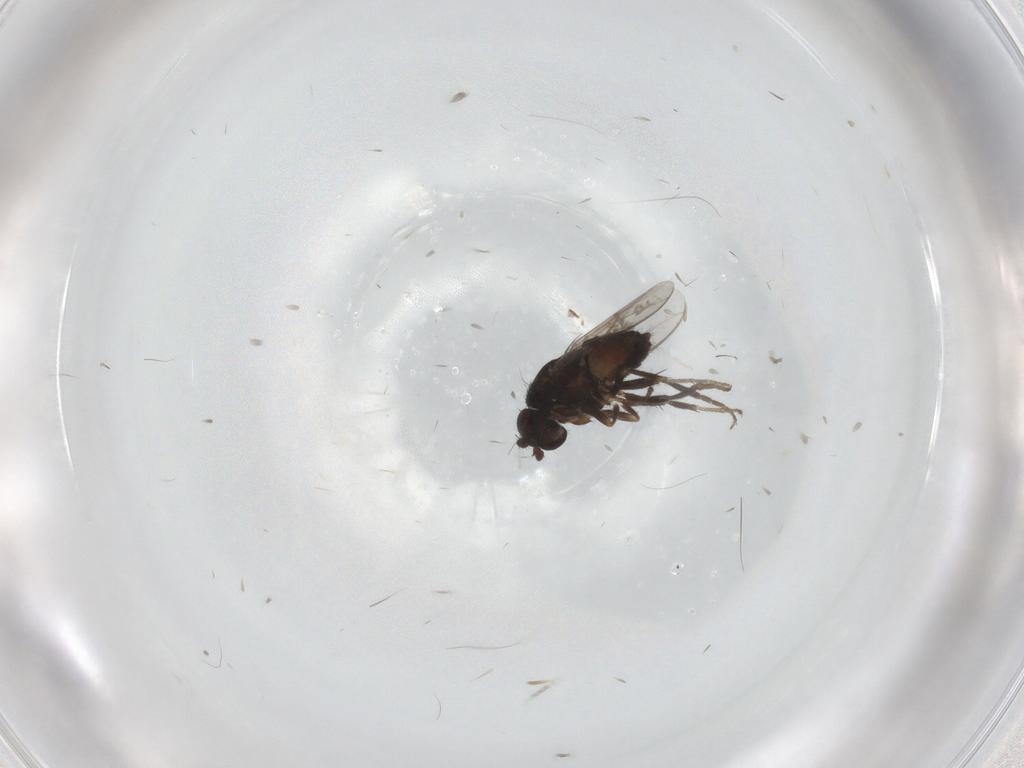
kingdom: Animalia
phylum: Arthropoda
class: Insecta
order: Diptera
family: Sphaeroceridae
